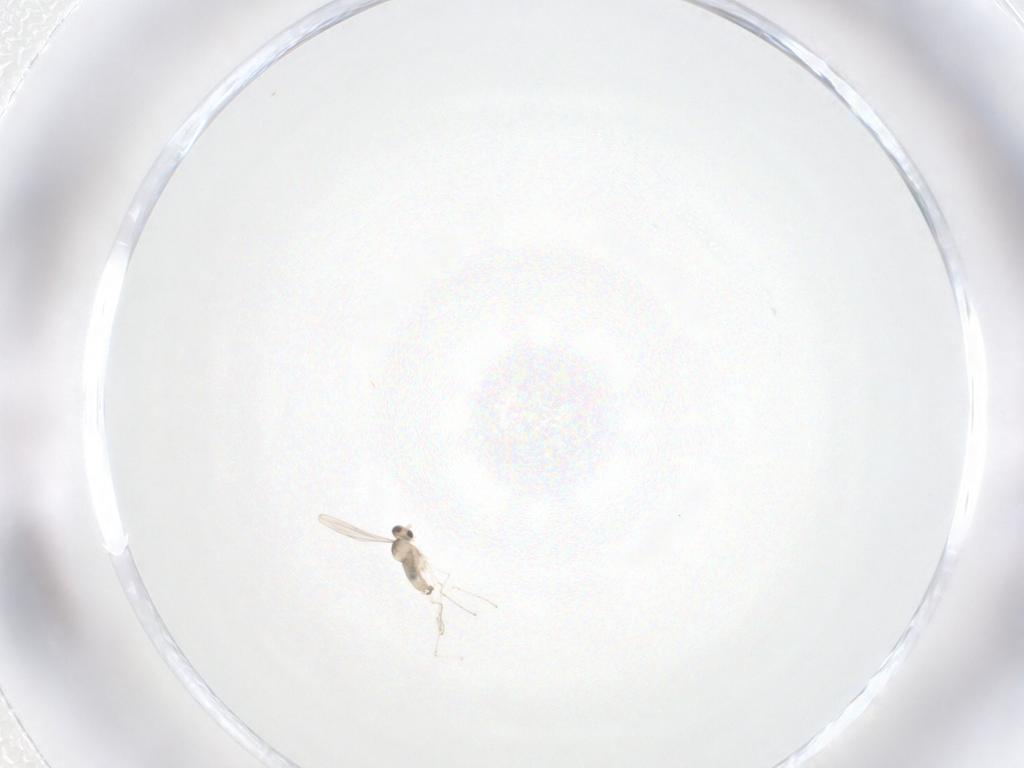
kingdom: Animalia
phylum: Arthropoda
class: Insecta
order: Diptera
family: Cecidomyiidae
